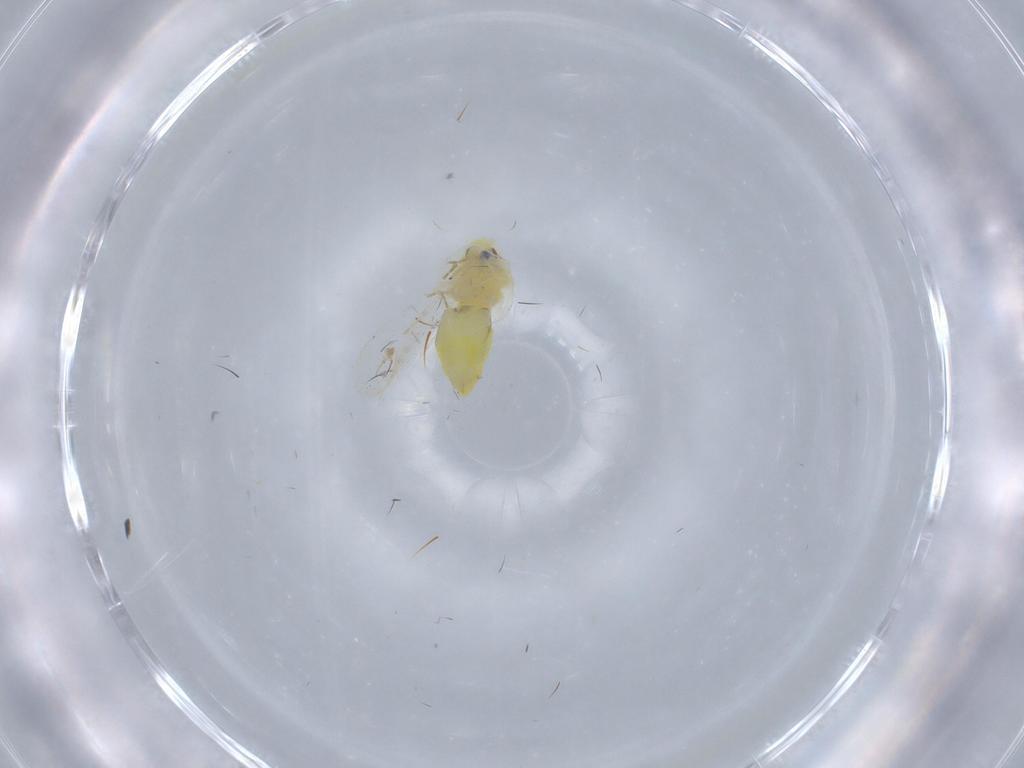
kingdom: Animalia
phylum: Arthropoda
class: Insecta
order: Hemiptera
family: Aleyrodidae
